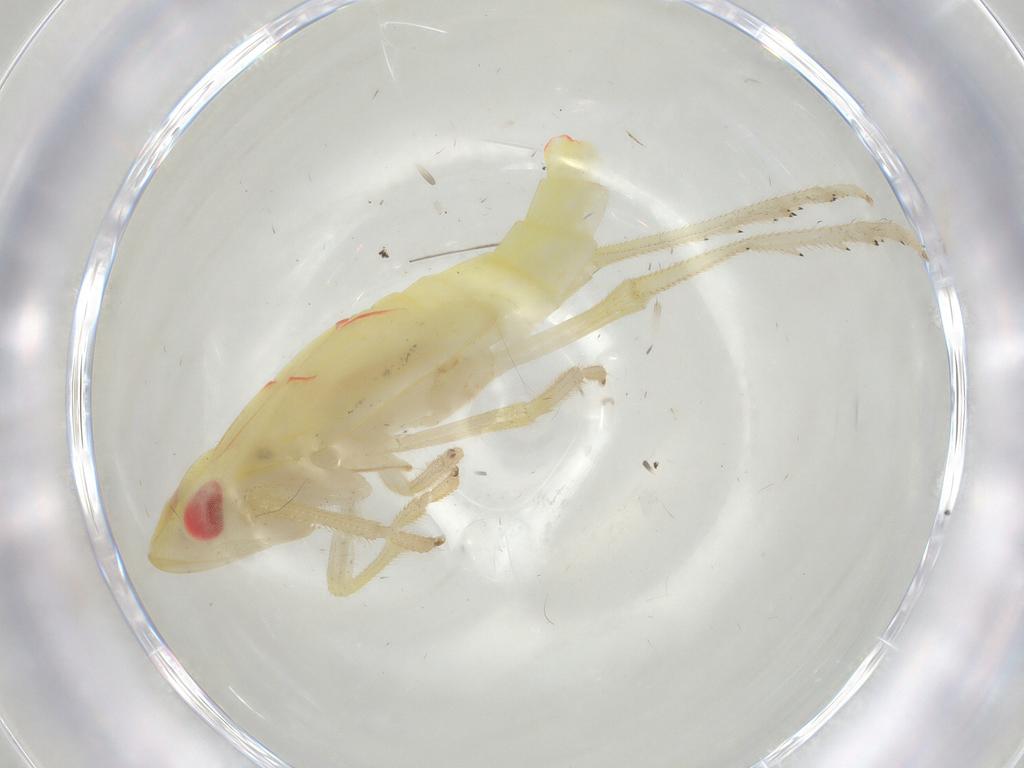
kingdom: Animalia
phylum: Arthropoda
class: Insecta
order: Hemiptera
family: Tropiduchidae
